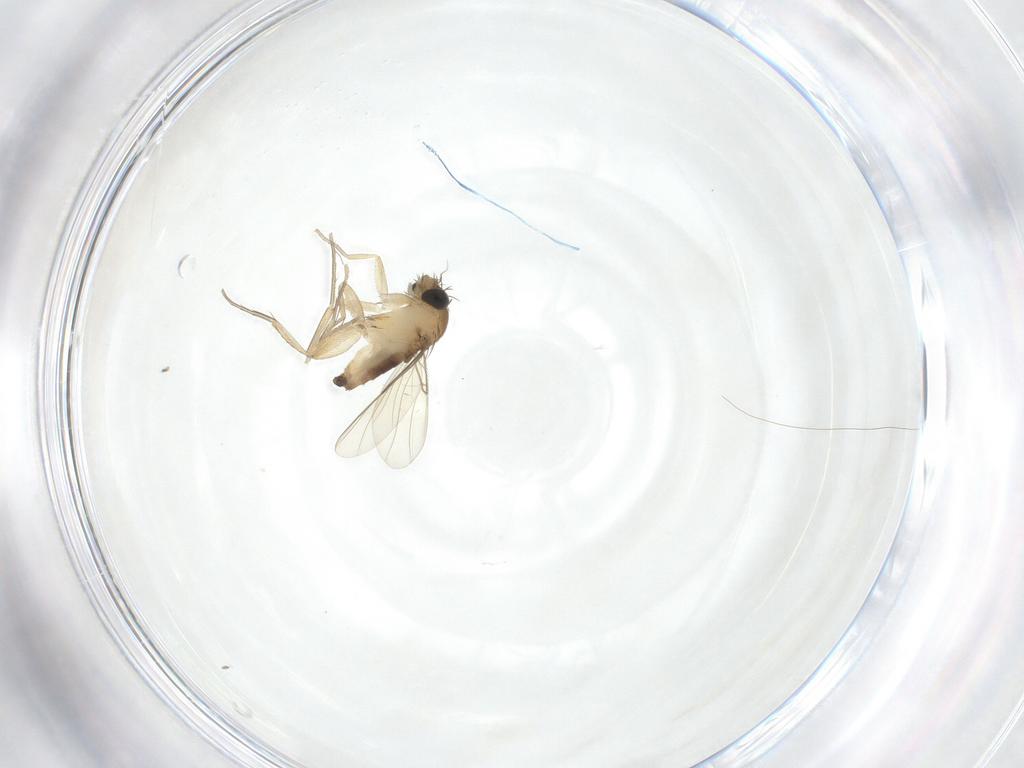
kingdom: Animalia
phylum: Arthropoda
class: Insecta
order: Diptera
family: Phoridae
